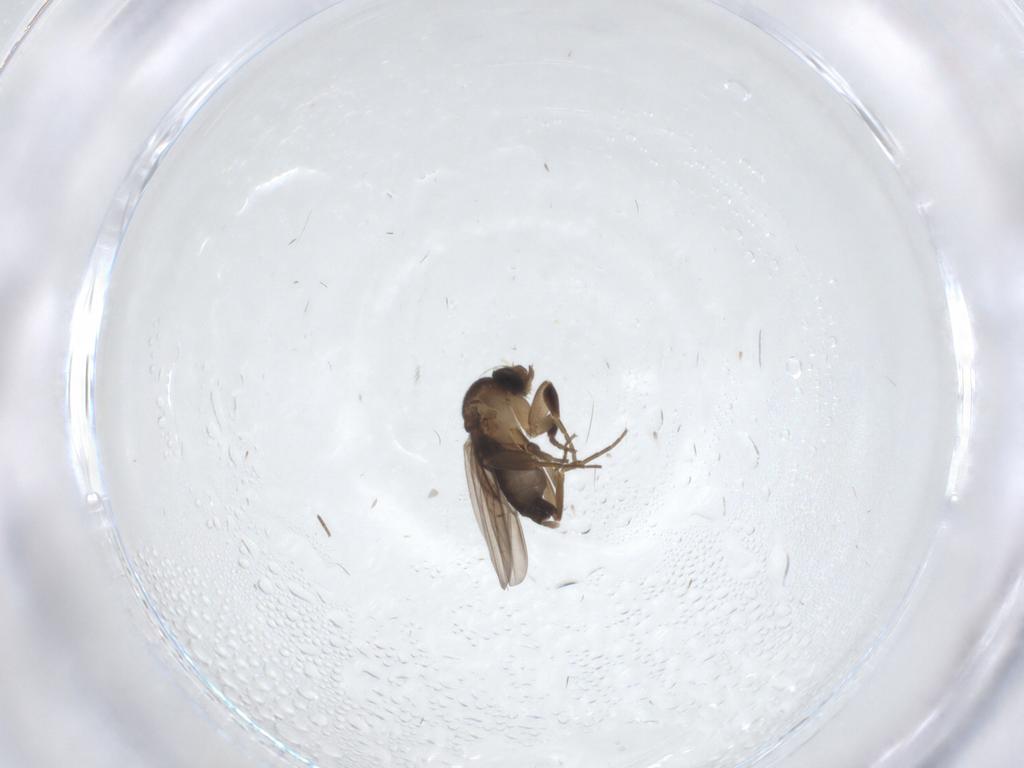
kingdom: Animalia
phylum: Arthropoda
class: Insecta
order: Diptera
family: Phoridae
